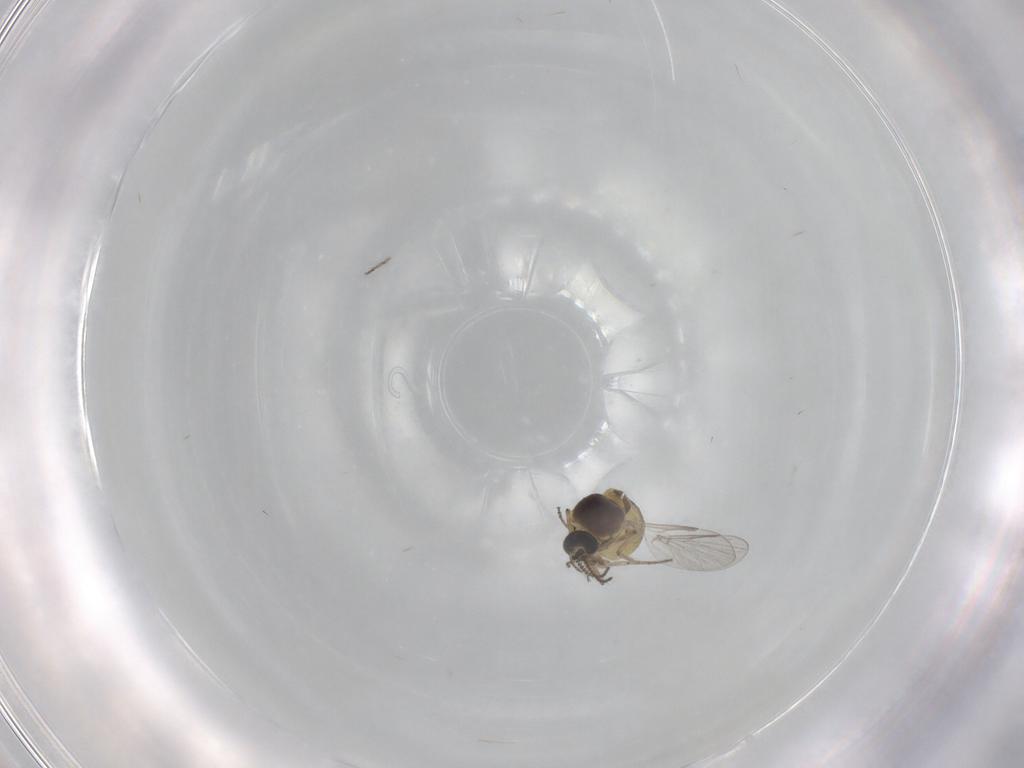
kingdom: Animalia
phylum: Arthropoda
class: Insecta
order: Diptera
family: Ceratopogonidae
